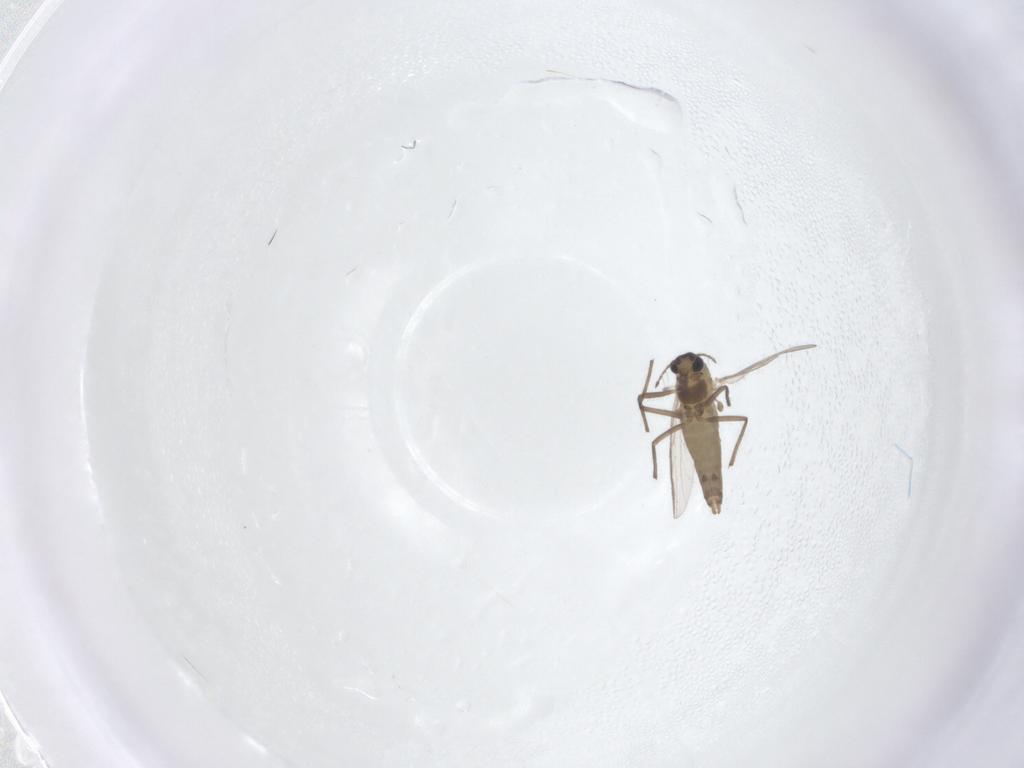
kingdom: Animalia
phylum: Arthropoda
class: Insecta
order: Diptera
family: Chironomidae
